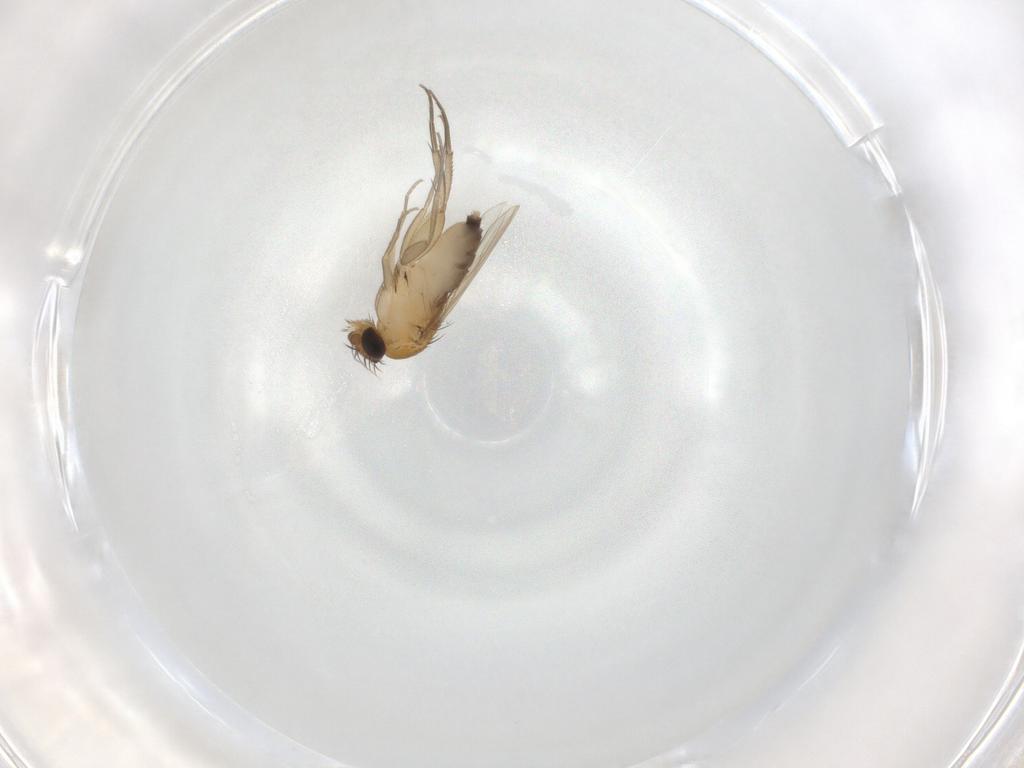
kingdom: Animalia
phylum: Arthropoda
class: Insecta
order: Diptera
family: Phoridae
